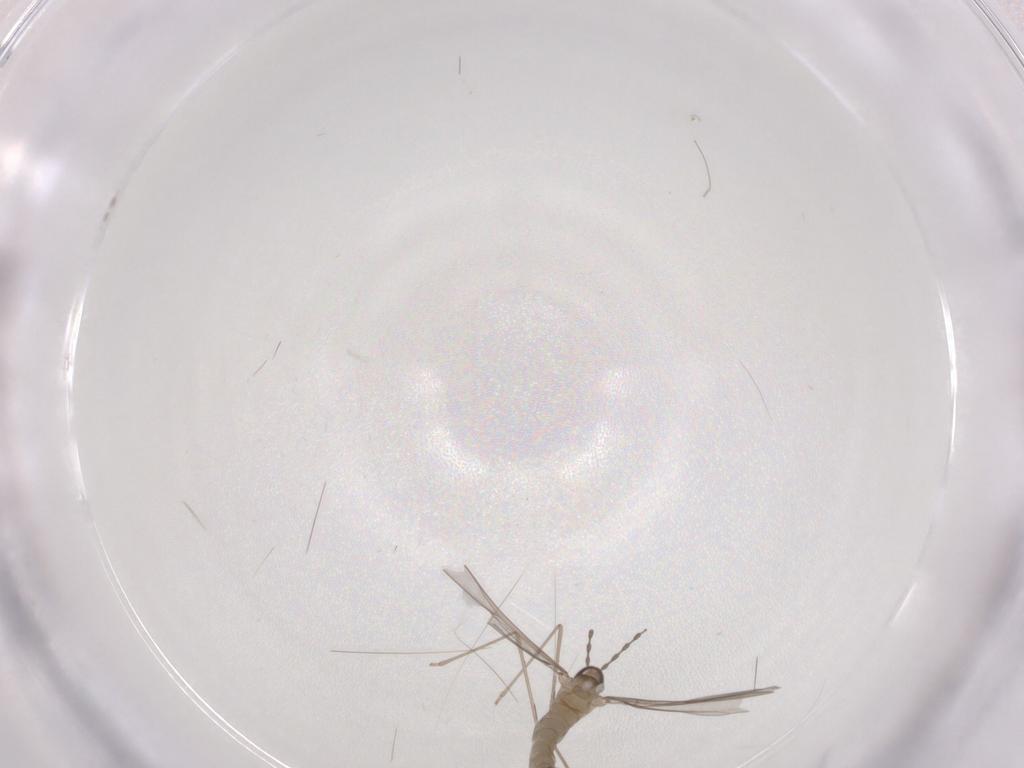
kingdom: Animalia
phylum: Arthropoda
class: Insecta
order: Diptera
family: Cecidomyiidae
